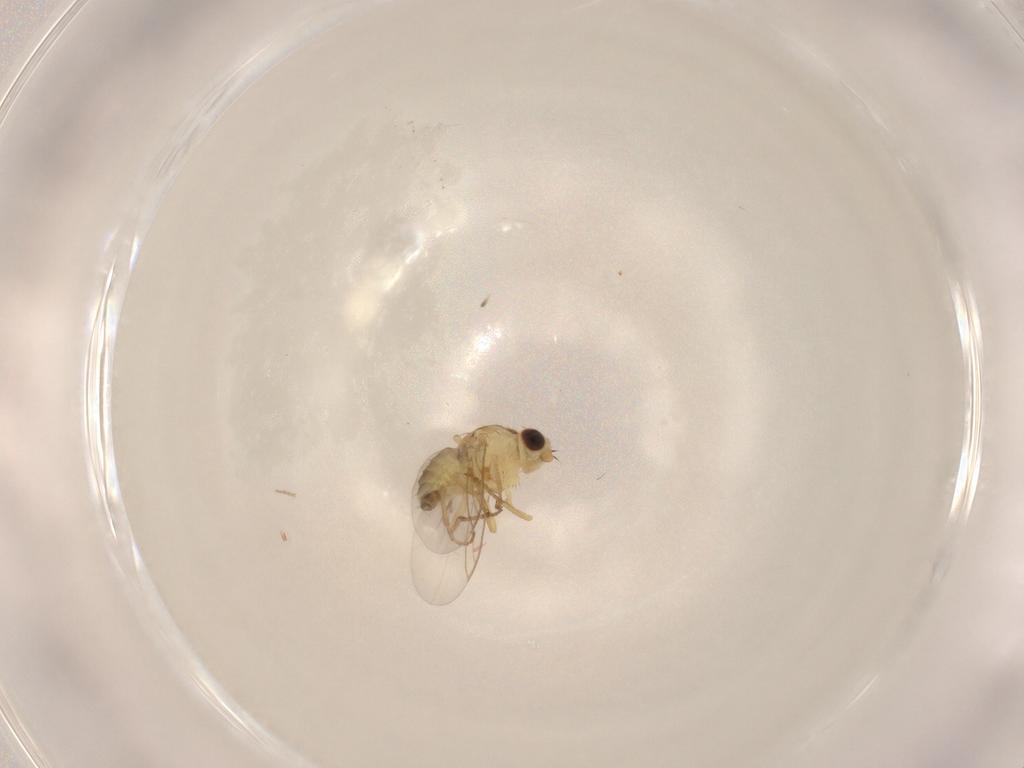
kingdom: Animalia
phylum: Arthropoda
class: Insecta
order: Diptera
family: Agromyzidae
